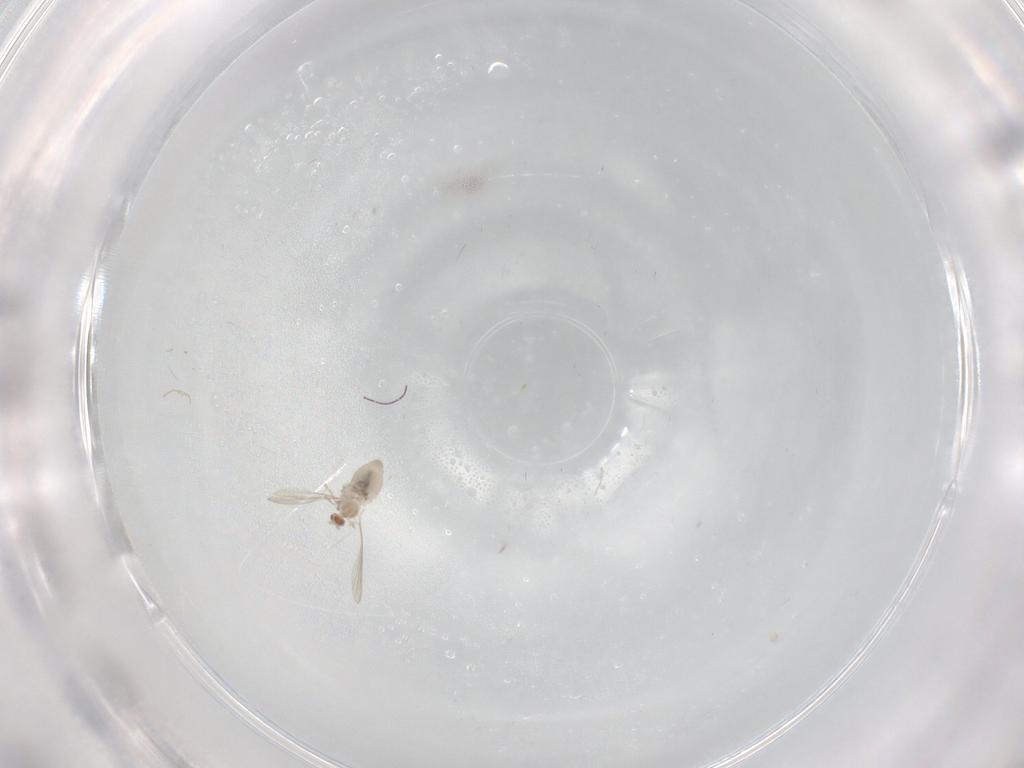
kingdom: Animalia
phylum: Arthropoda
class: Insecta
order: Diptera
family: Cecidomyiidae
